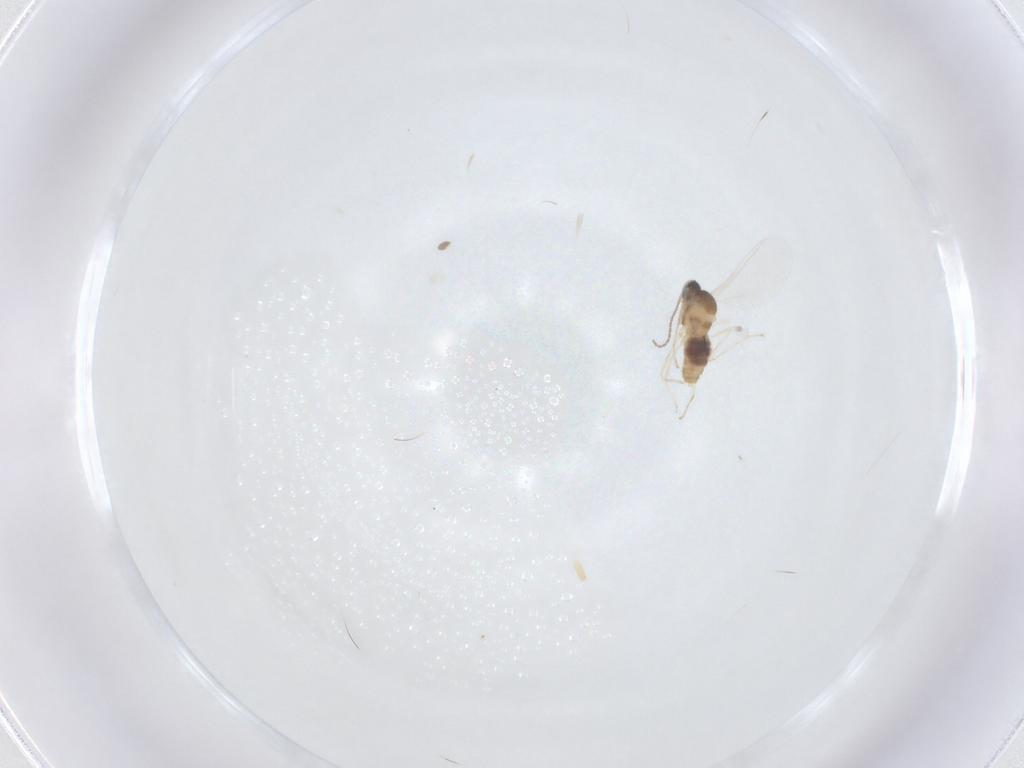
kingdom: Animalia
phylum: Arthropoda
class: Insecta
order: Diptera
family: Cecidomyiidae
